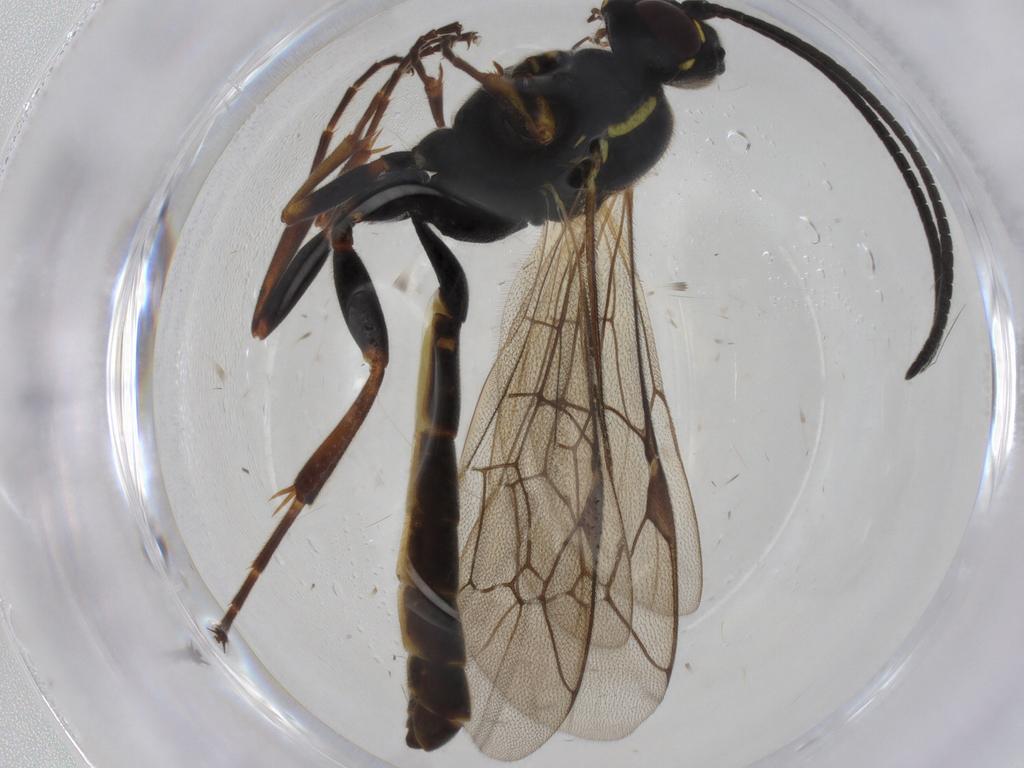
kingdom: Animalia
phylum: Arthropoda
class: Insecta
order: Hymenoptera
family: Ichneumonidae
